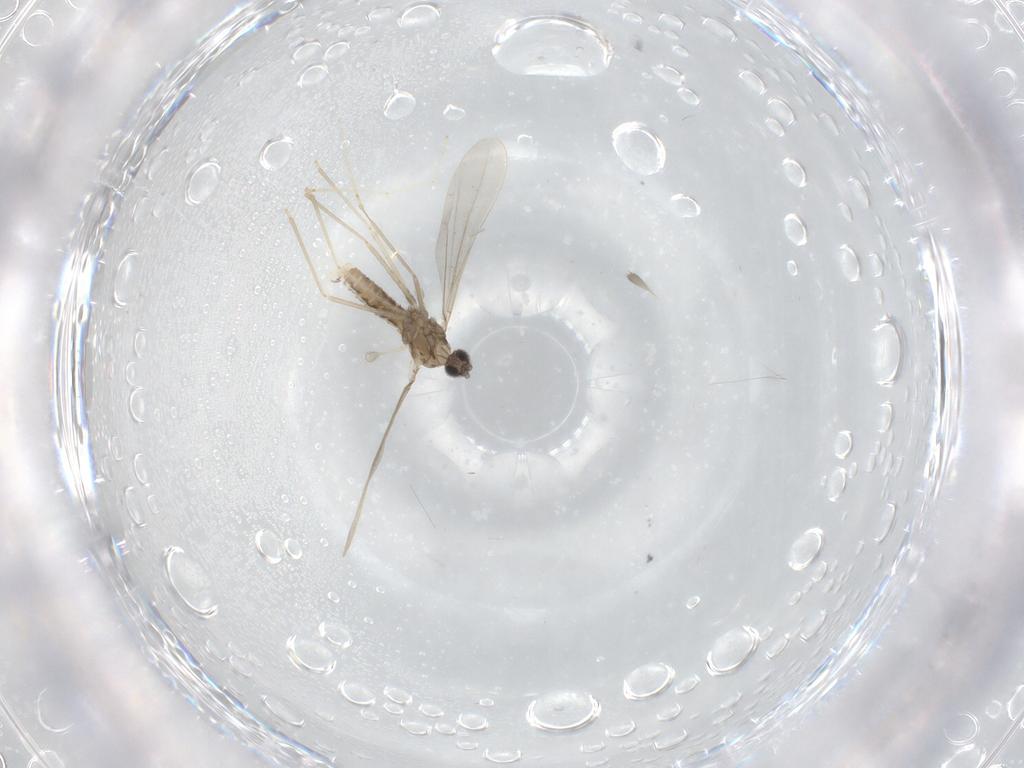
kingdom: Animalia
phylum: Arthropoda
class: Insecta
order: Diptera
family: Cecidomyiidae
